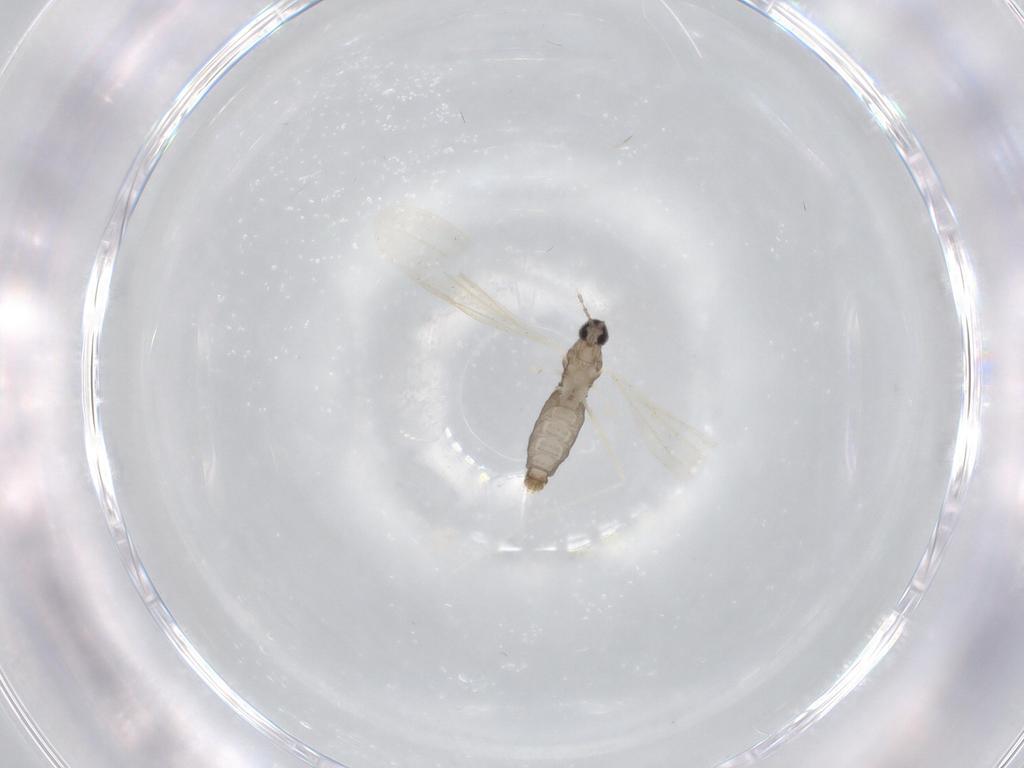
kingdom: Animalia
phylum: Arthropoda
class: Insecta
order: Diptera
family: Cecidomyiidae
